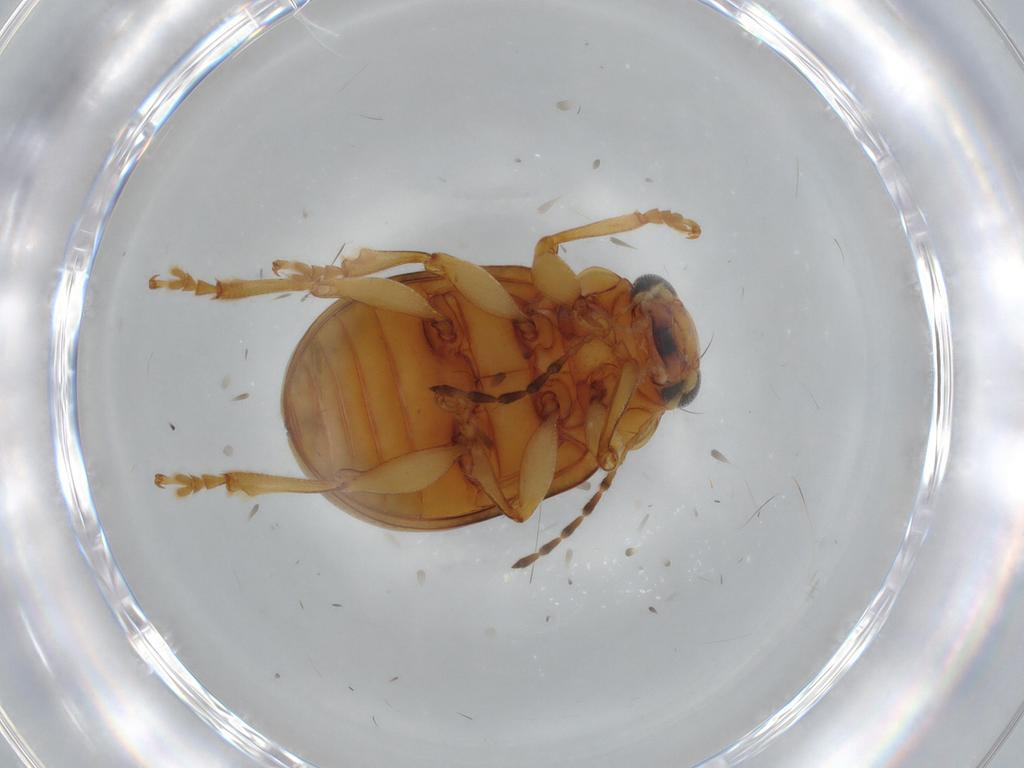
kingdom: Animalia
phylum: Arthropoda
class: Insecta
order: Coleoptera
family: Chrysomelidae
